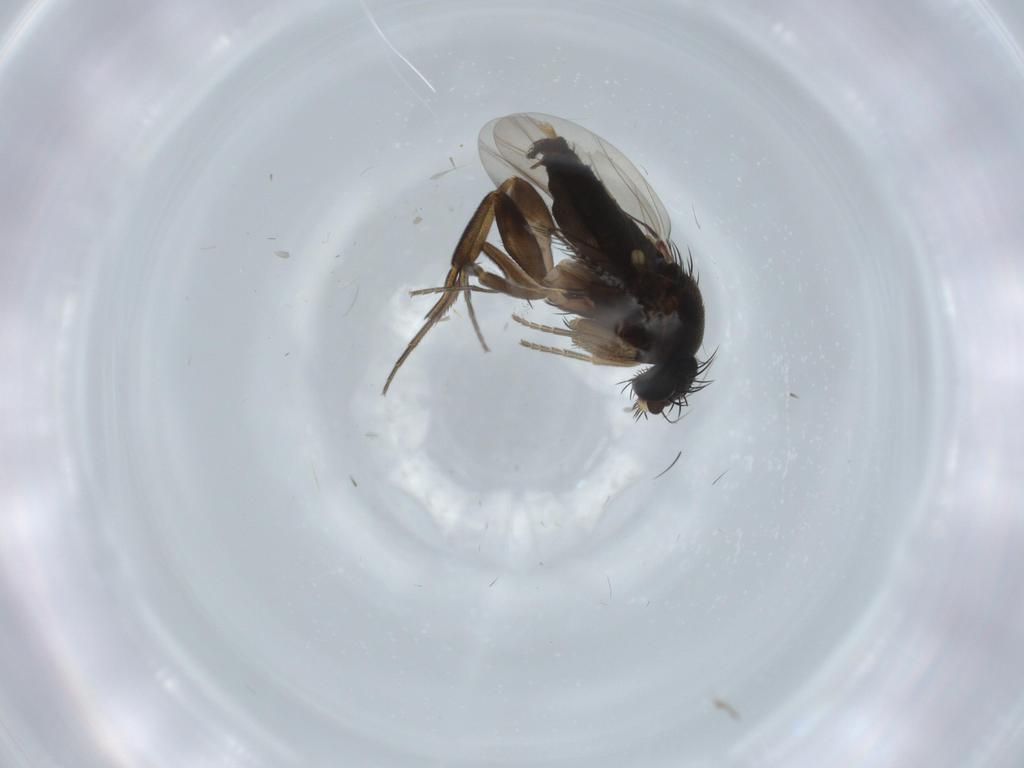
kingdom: Animalia
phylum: Arthropoda
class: Insecta
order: Diptera
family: Phoridae
